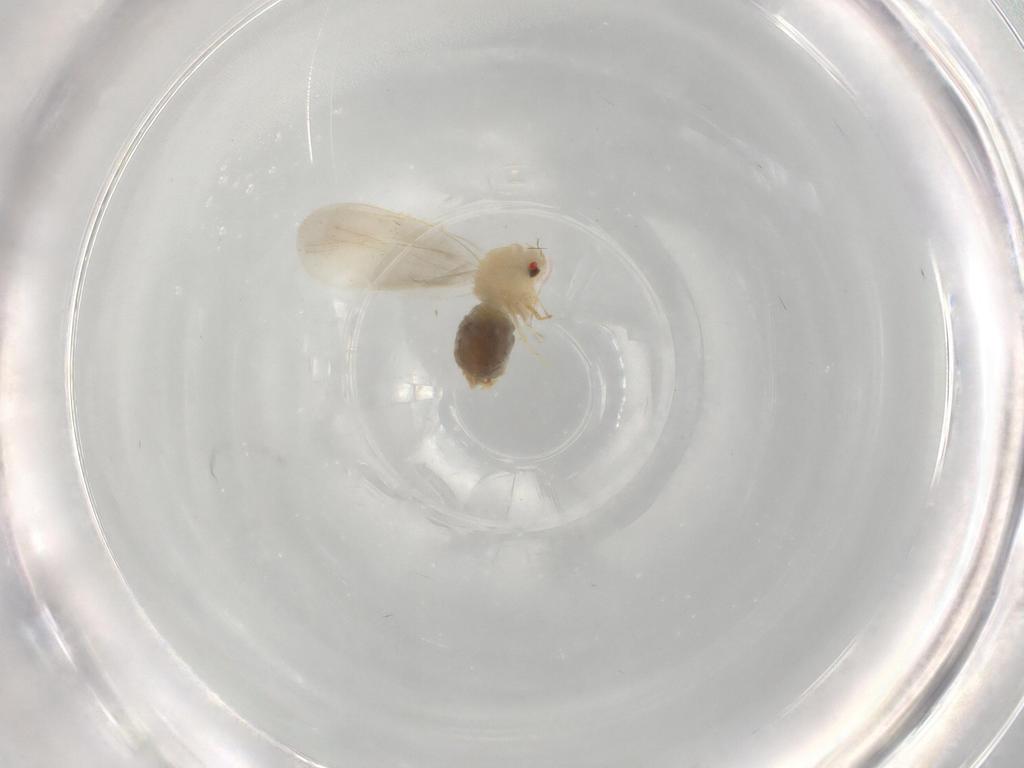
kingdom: Animalia
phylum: Arthropoda
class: Insecta
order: Hemiptera
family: Aleyrodidae
